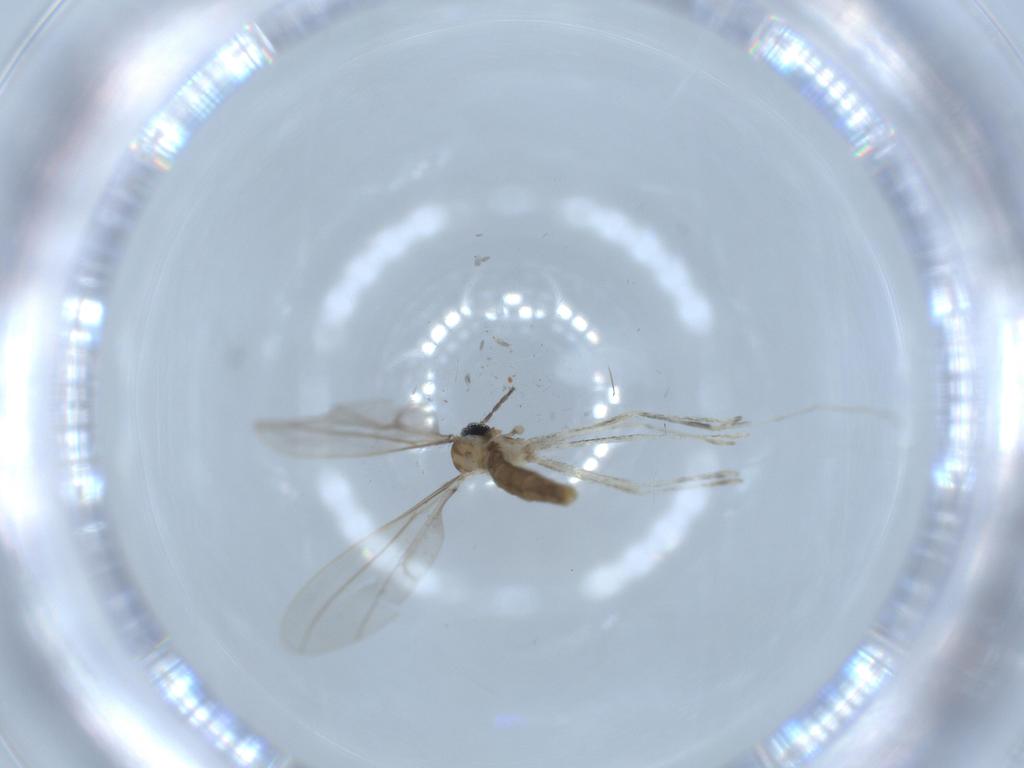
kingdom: Animalia
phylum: Arthropoda
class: Insecta
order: Diptera
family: Cecidomyiidae
